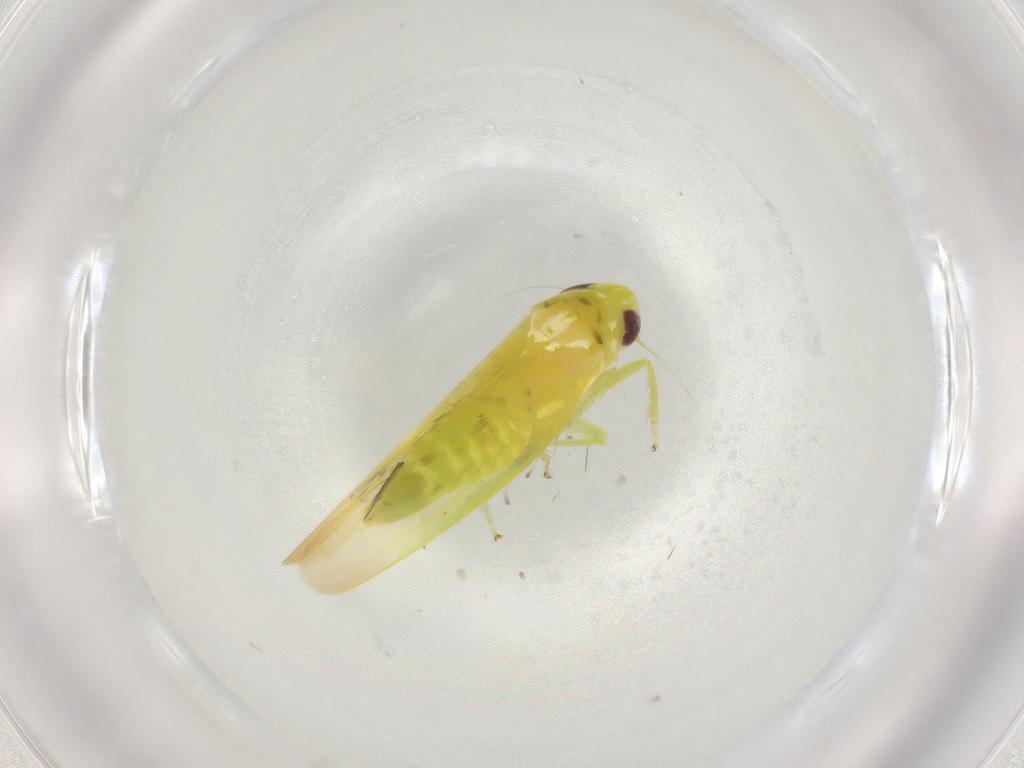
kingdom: Animalia
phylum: Arthropoda
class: Insecta
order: Hemiptera
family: Cicadellidae
